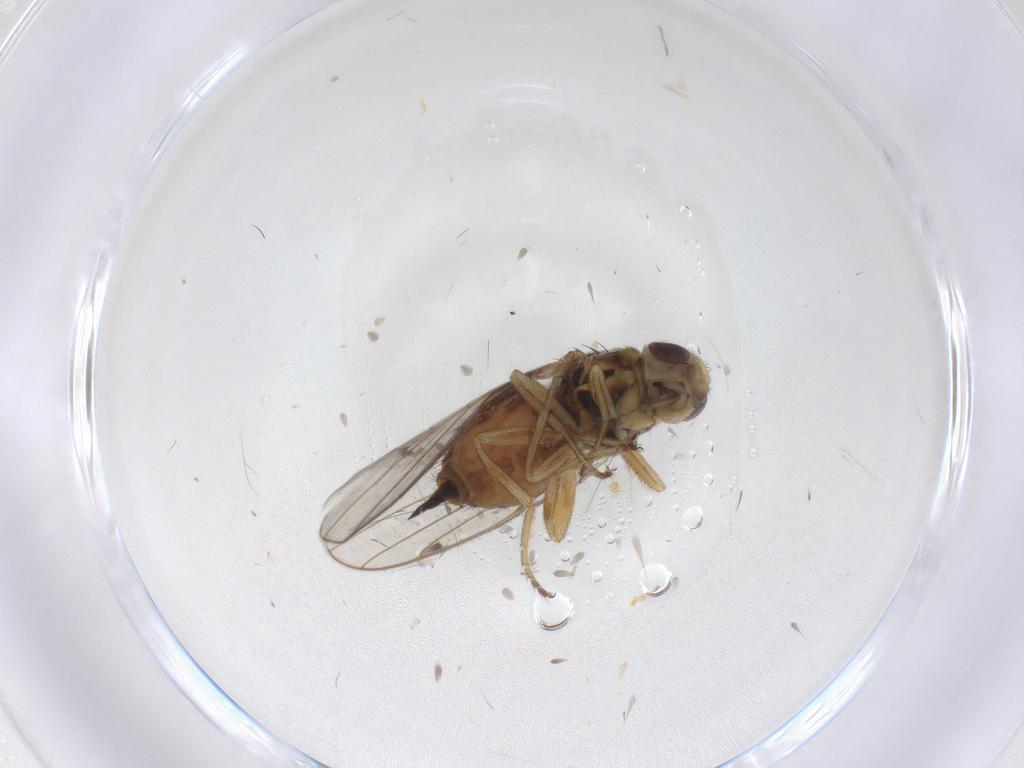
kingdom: Animalia
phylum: Arthropoda
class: Insecta
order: Diptera
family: Chloropidae
